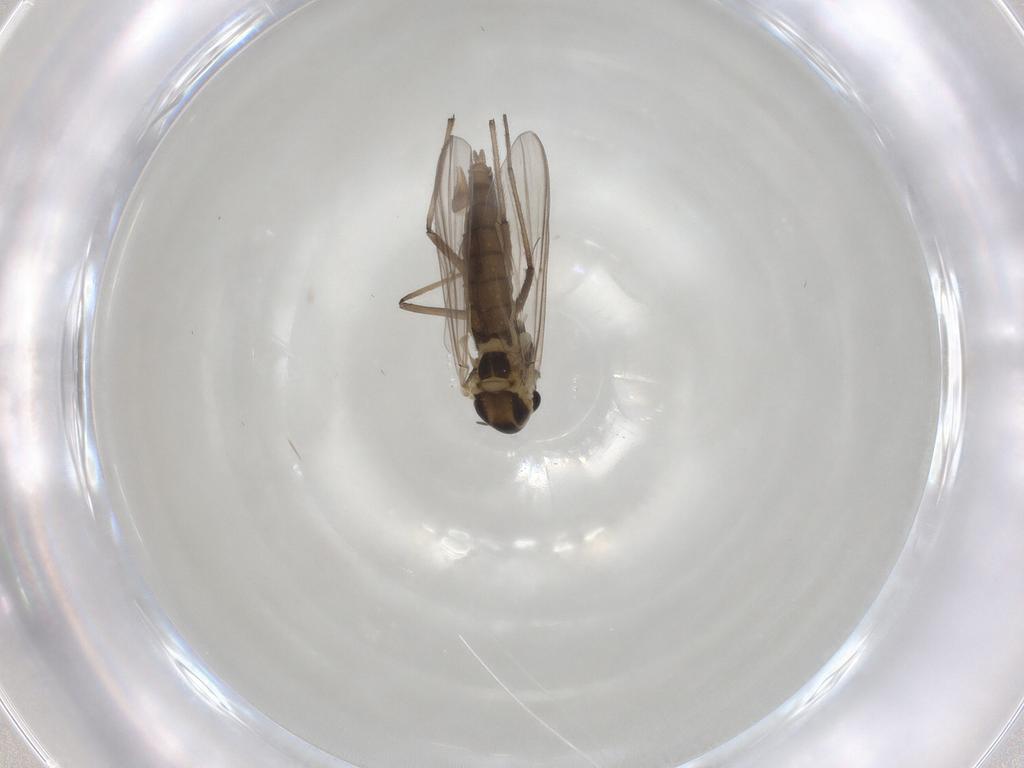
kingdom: Animalia
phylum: Arthropoda
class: Insecta
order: Diptera
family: Chironomidae
